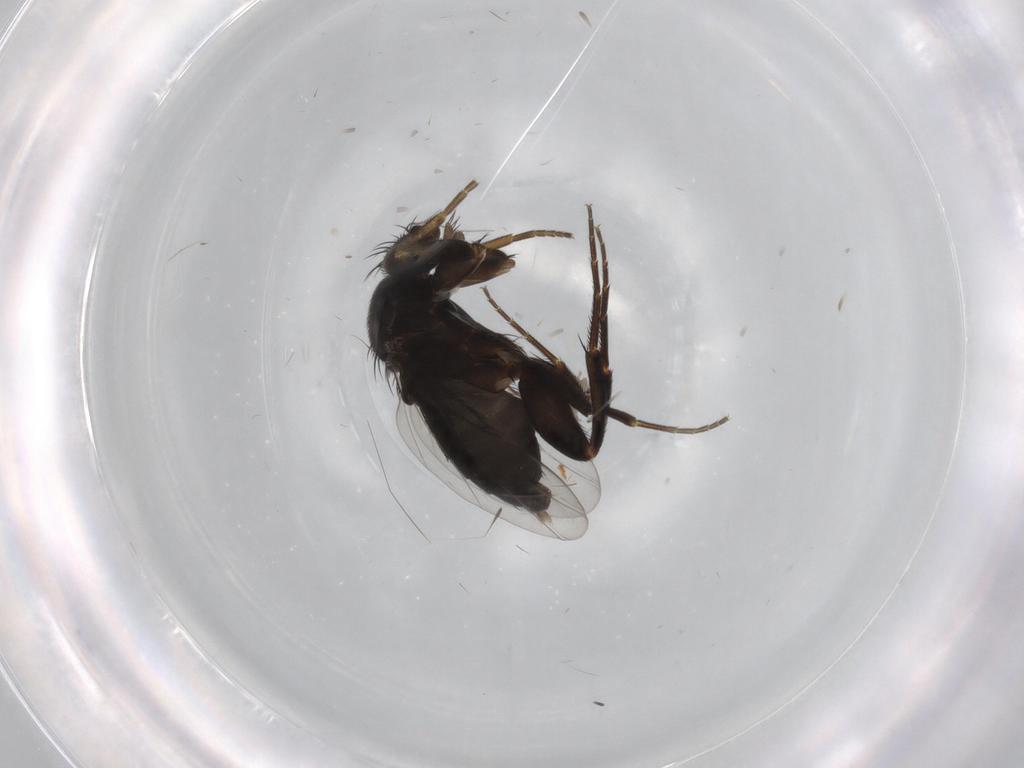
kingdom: Animalia
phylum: Arthropoda
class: Insecta
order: Diptera
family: Phoridae
